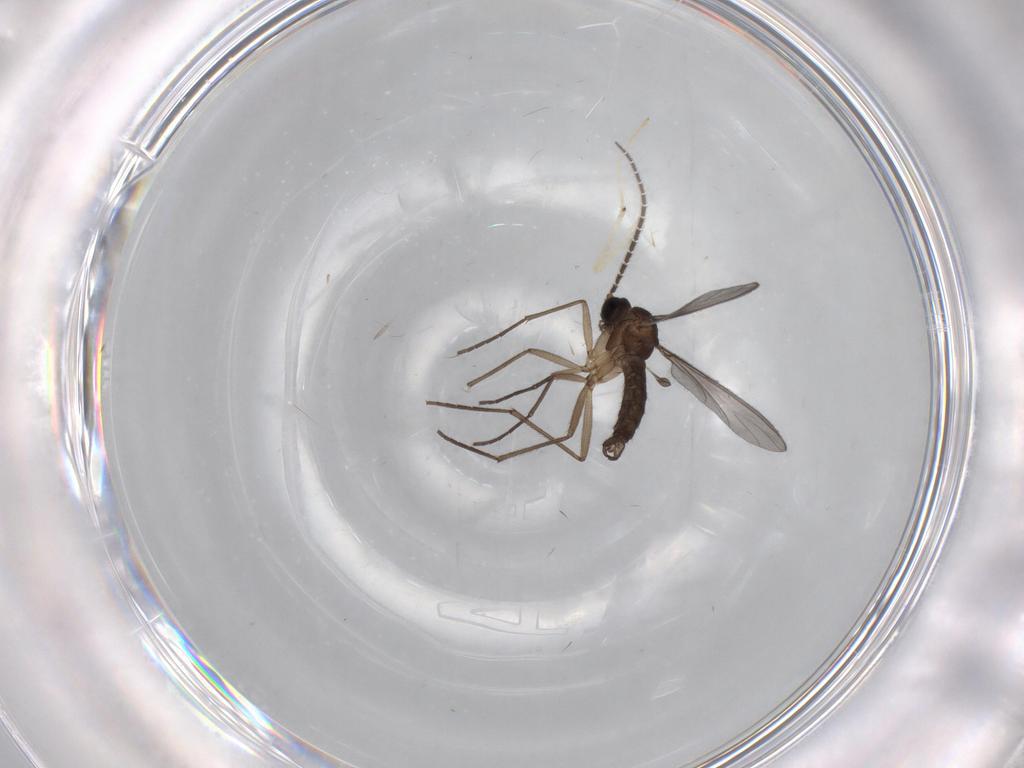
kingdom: Animalia
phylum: Arthropoda
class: Insecta
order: Diptera
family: Chironomidae
